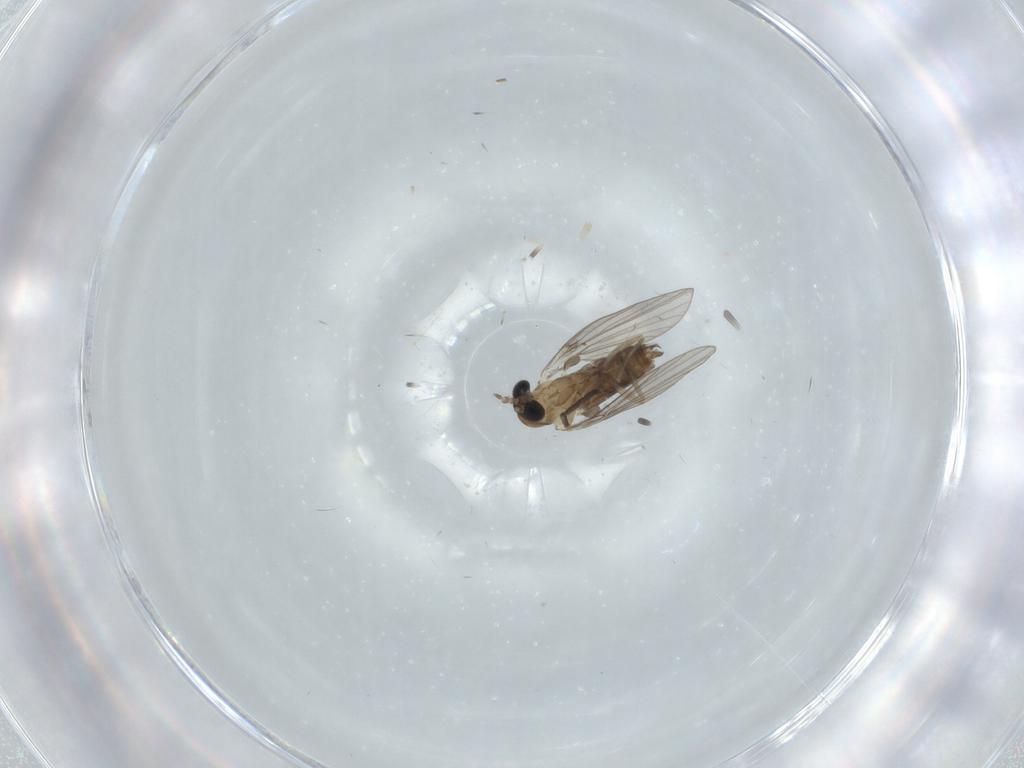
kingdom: Animalia
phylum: Arthropoda
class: Insecta
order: Diptera
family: Psychodidae
